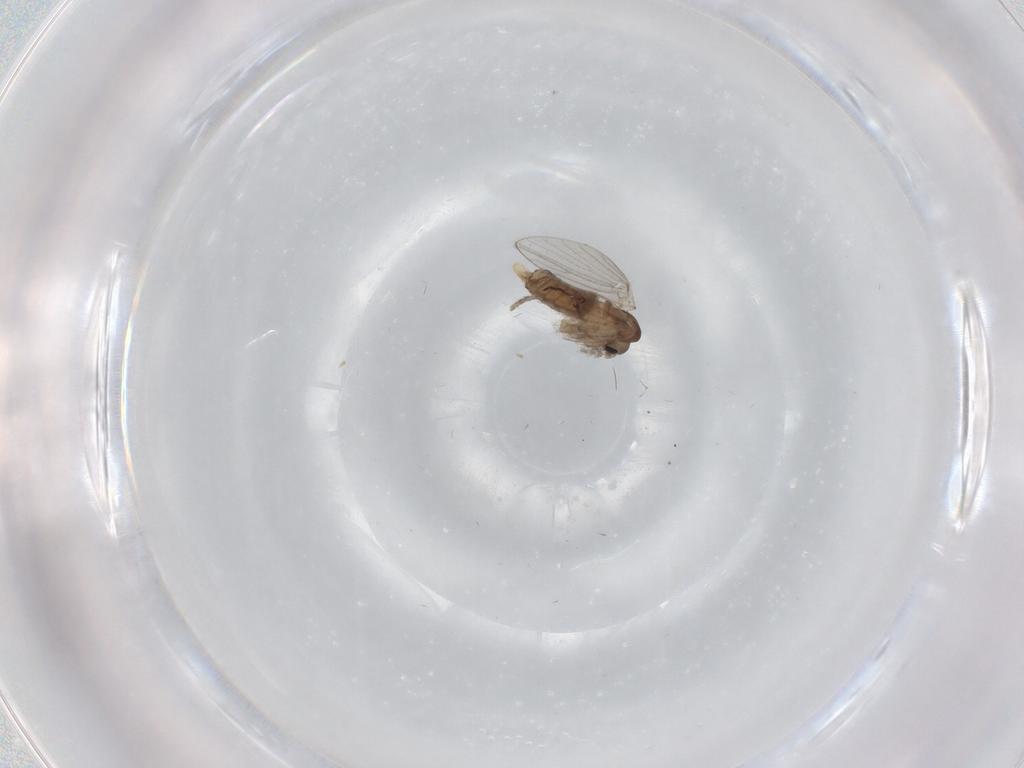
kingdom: Animalia
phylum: Arthropoda
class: Insecta
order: Diptera
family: Psychodidae
